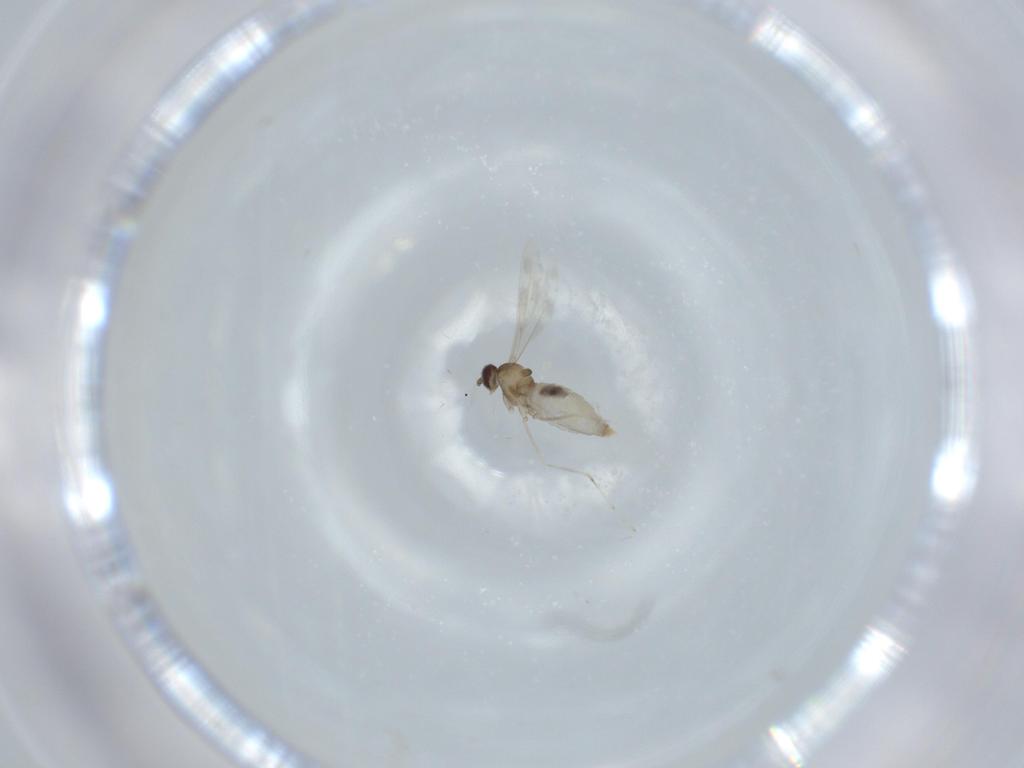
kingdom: Animalia
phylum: Arthropoda
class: Insecta
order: Diptera
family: Cecidomyiidae
